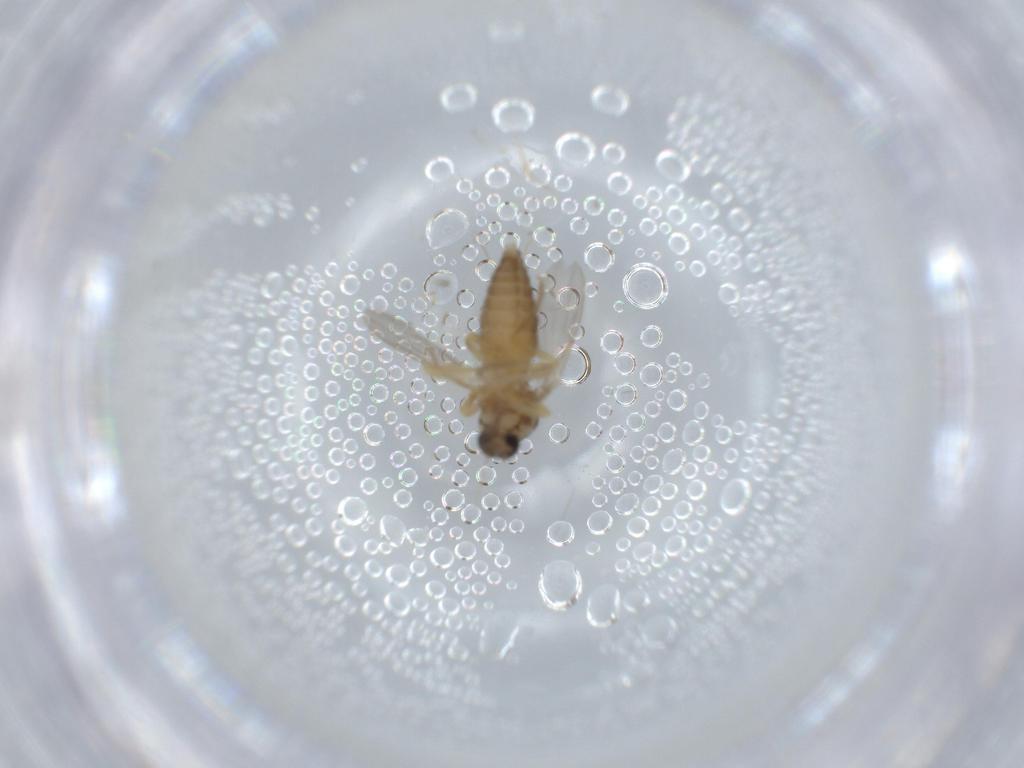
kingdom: Animalia
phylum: Arthropoda
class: Insecta
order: Diptera
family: Ceratopogonidae
